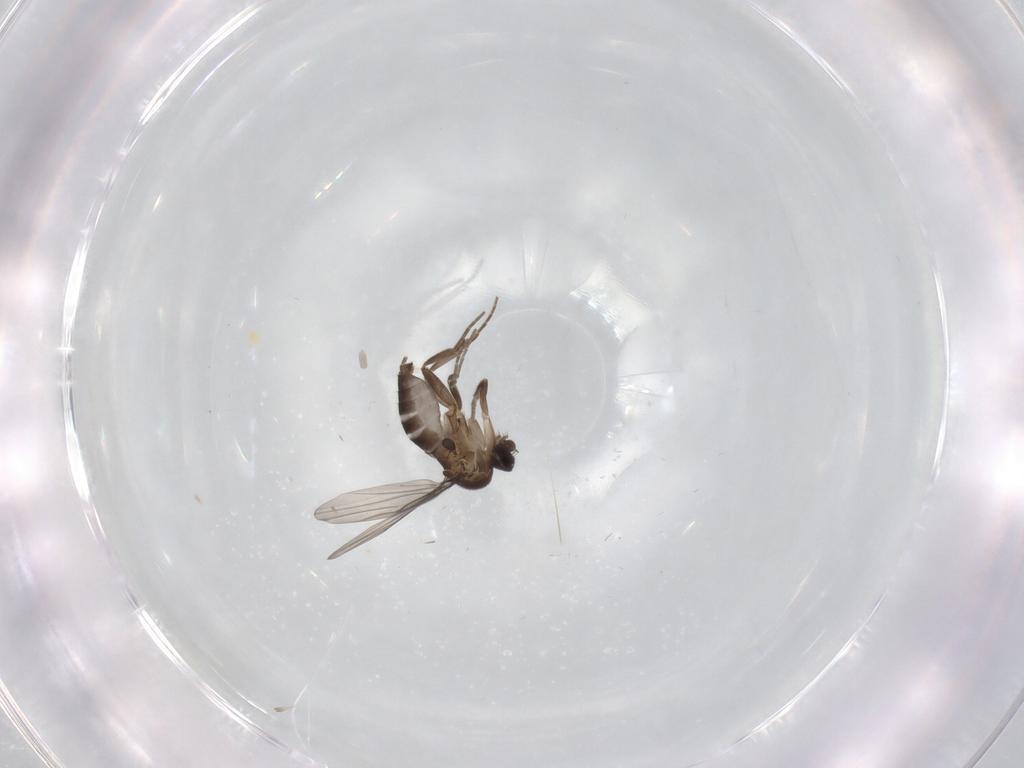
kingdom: Animalia
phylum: Arthropoda
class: Insecta
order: Diptera
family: Phoridae
